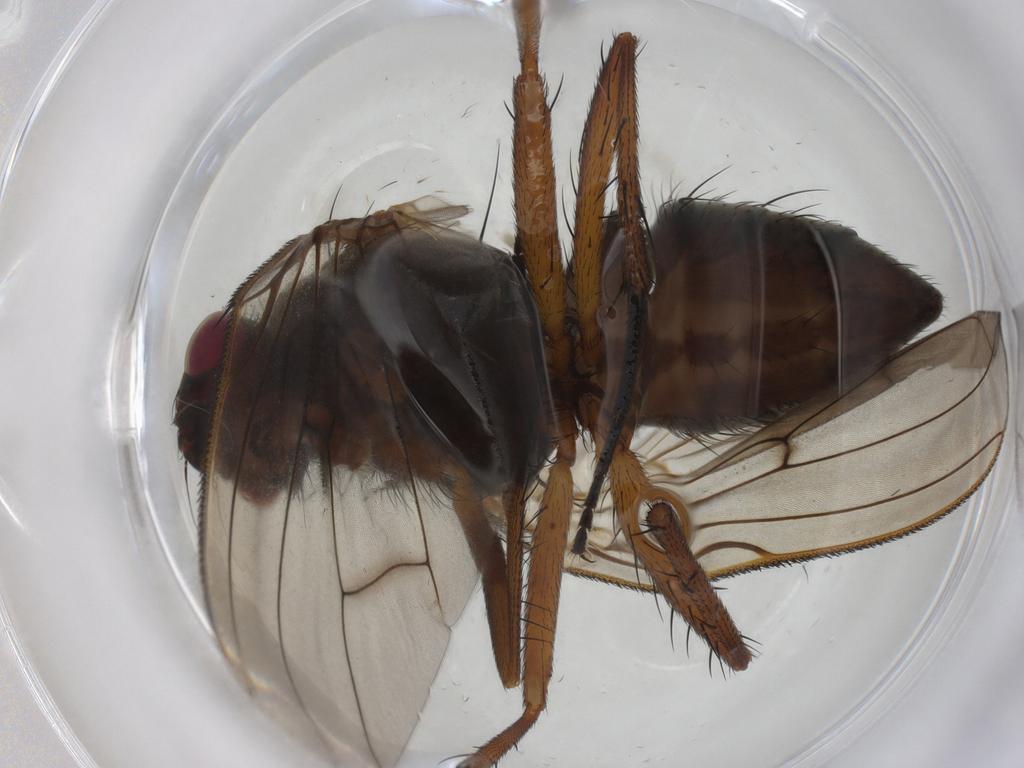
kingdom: Animalia
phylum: Arthropoda
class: Insecta
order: Diptera
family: Anthomyiidae
